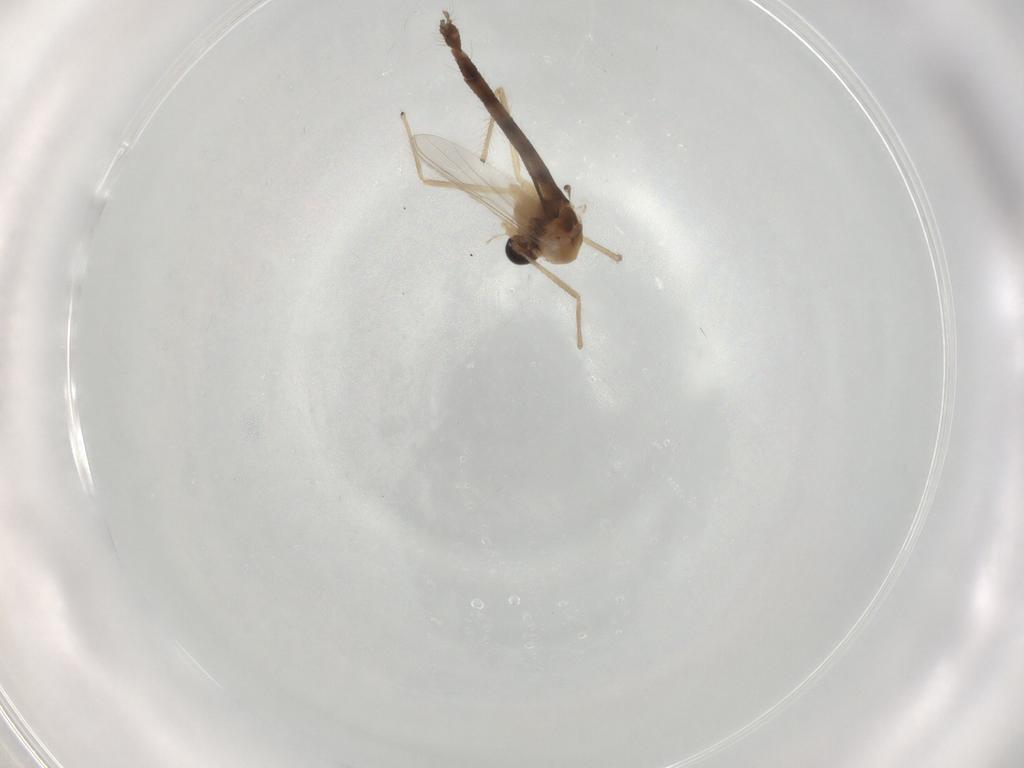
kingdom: Animalia
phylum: Arthropoda
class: Insecta
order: Diptera
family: Chironomidae
